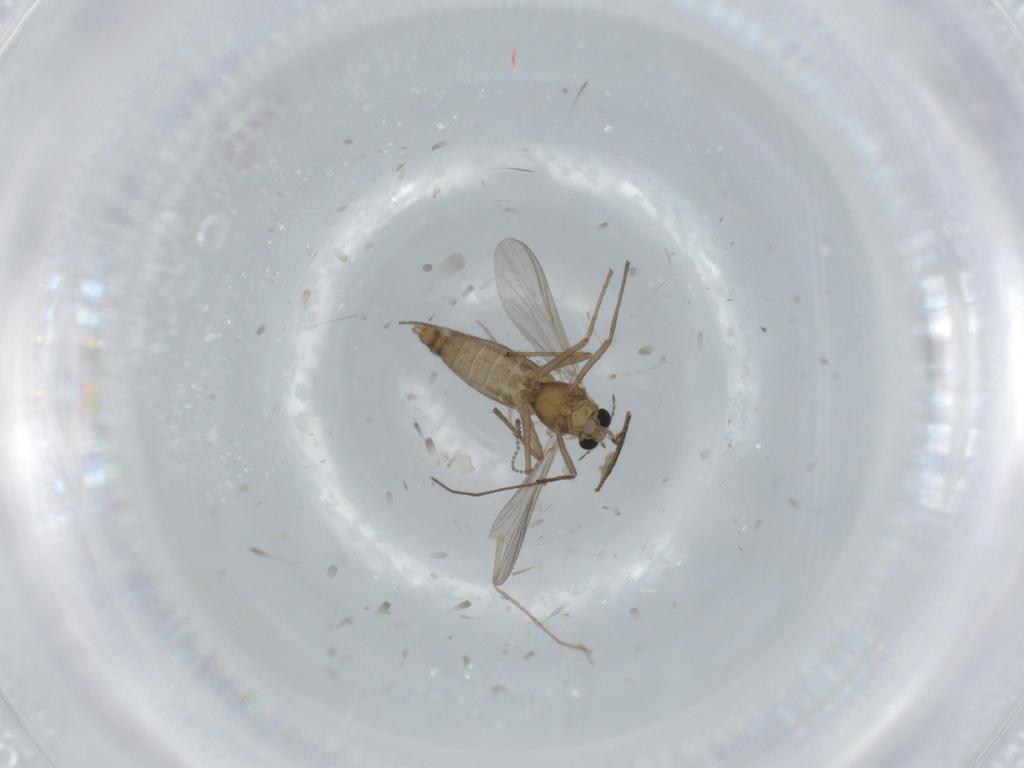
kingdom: Animalia
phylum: Arthropoda
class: Insecta
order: Diptera
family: Chironomidae
